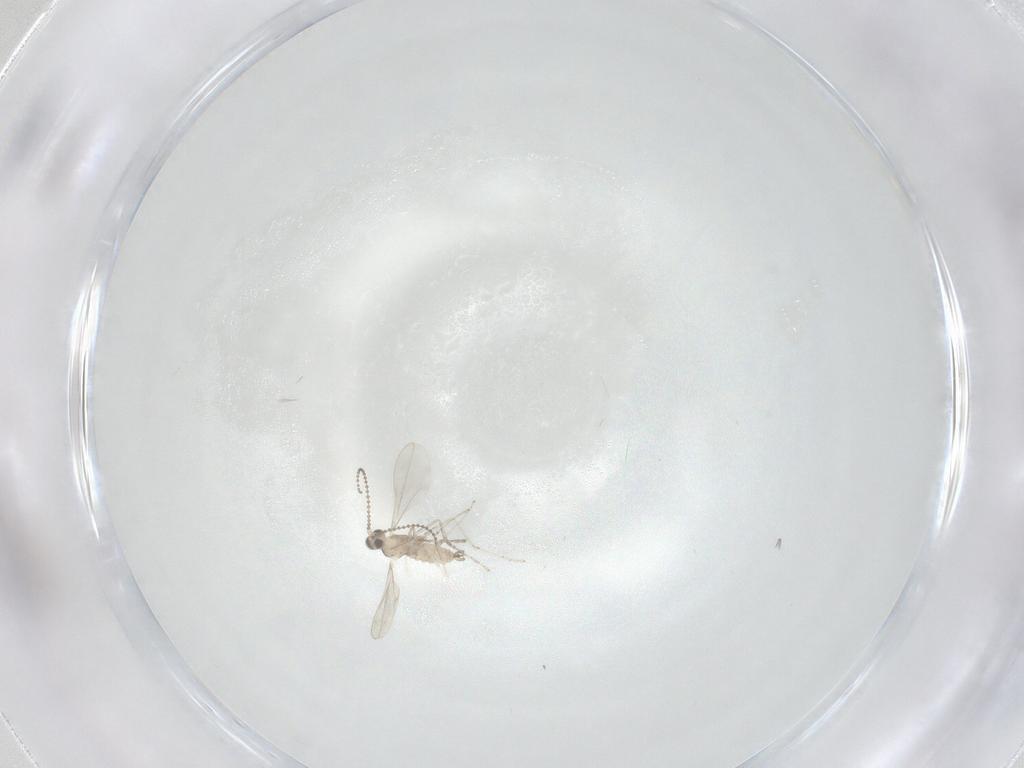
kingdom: Animalia
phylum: Arthropoda
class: Insecta
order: Diptera
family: Cecidomyiidae
